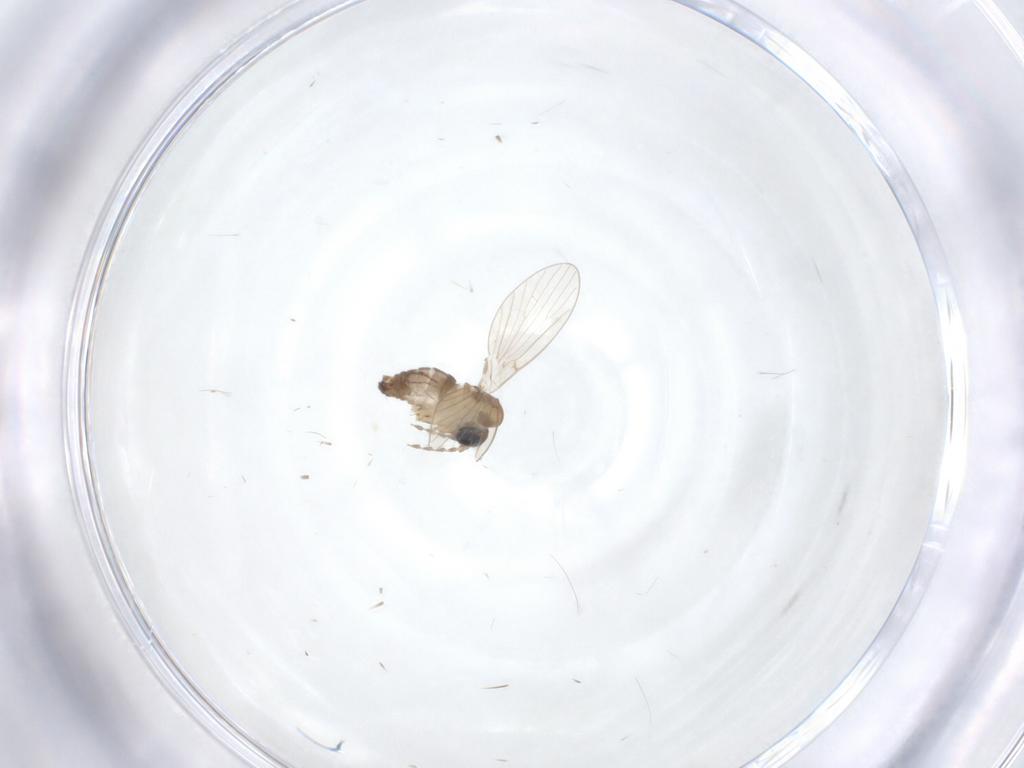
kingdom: Animalia
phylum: Arthropoda
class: Insecta
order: Diptera
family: Psychodidae
